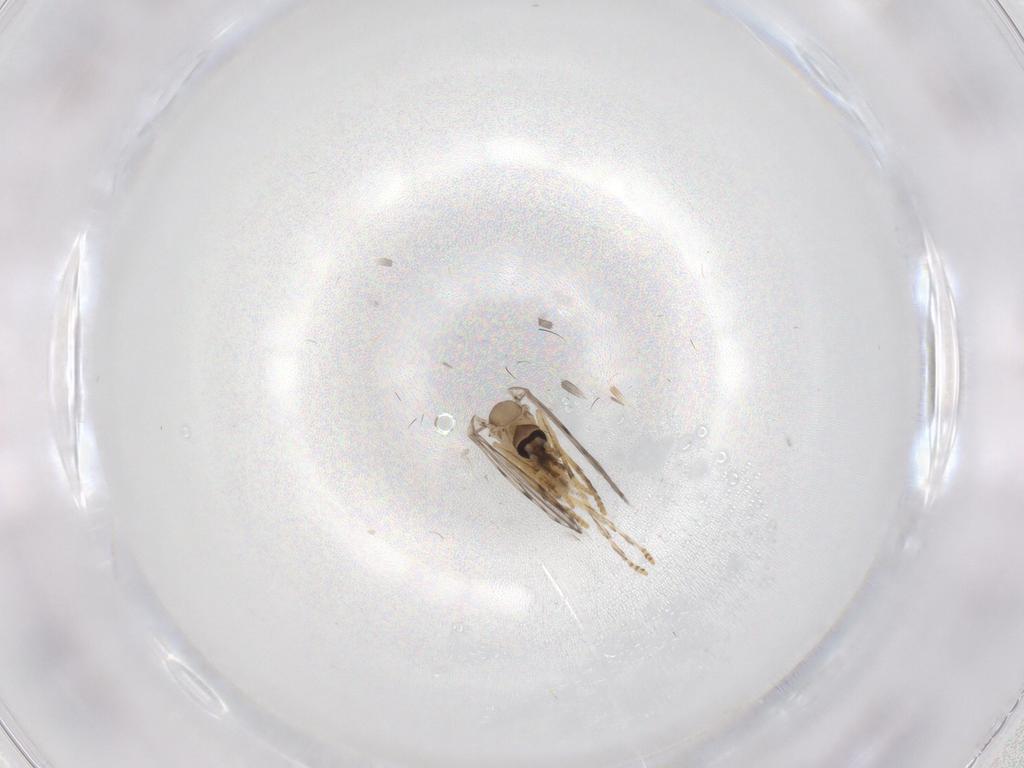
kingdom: Animalia
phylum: Arthropoda
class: Insecta
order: Diptera
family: Psychodidae
